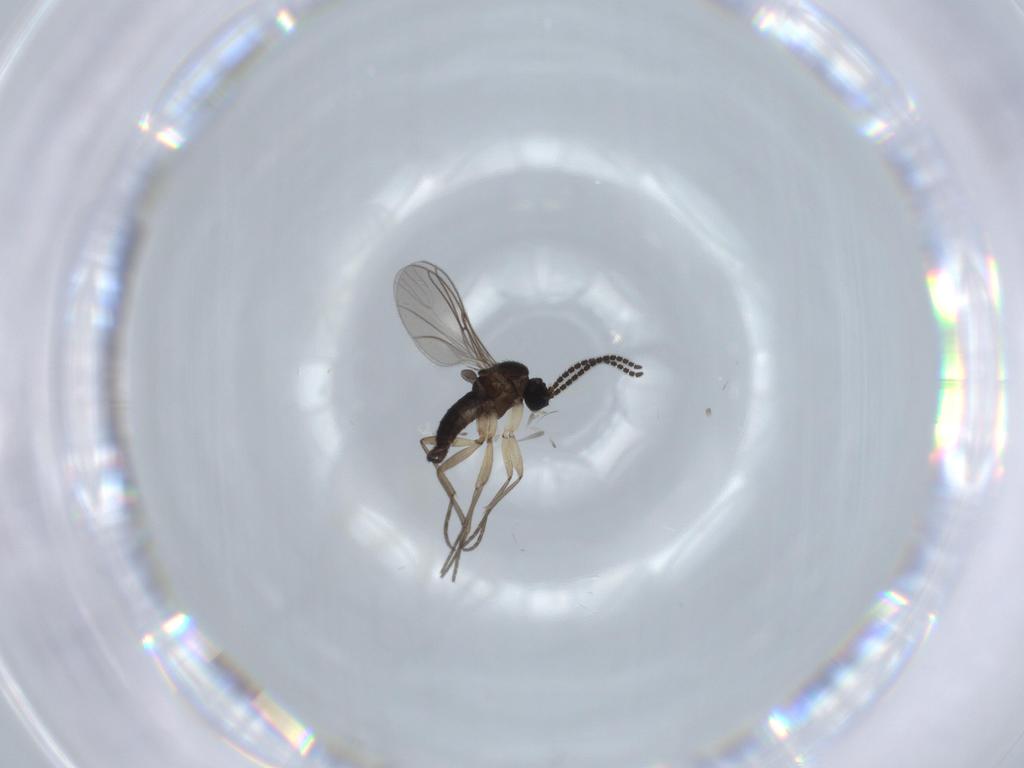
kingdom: Animalia
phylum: Arthropoda
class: Insecta
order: Diptera
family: Sciaridae
